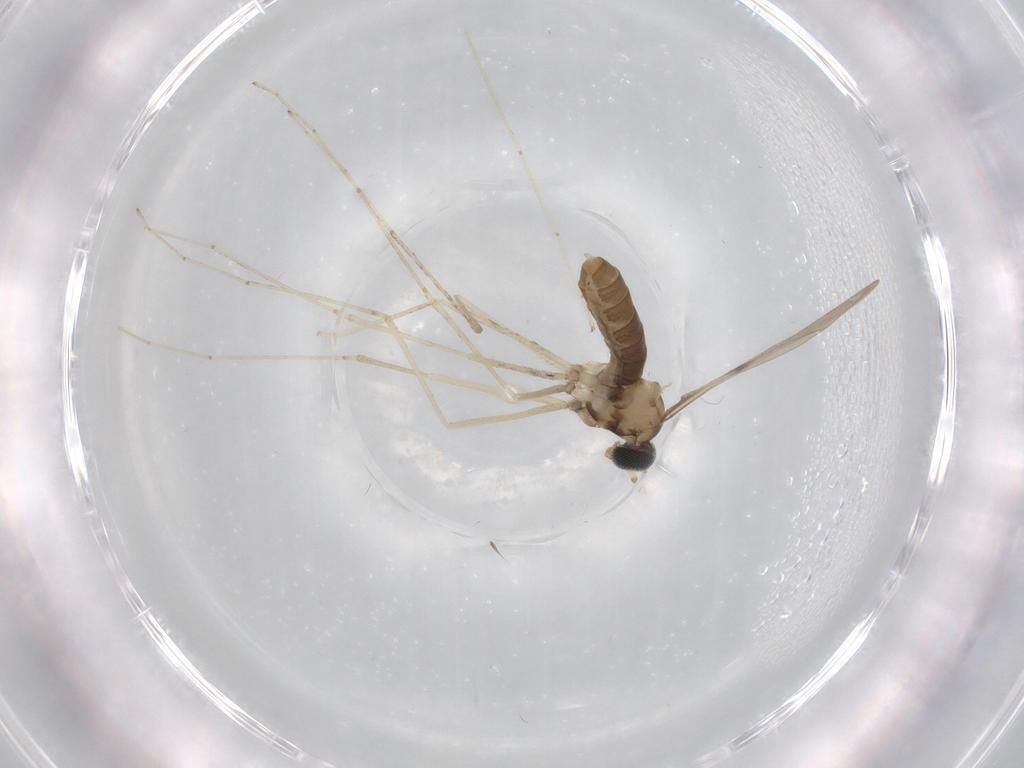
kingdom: Animalia
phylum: Arthropoda
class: Insecta
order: Diptera
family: Cecidomyiidae
